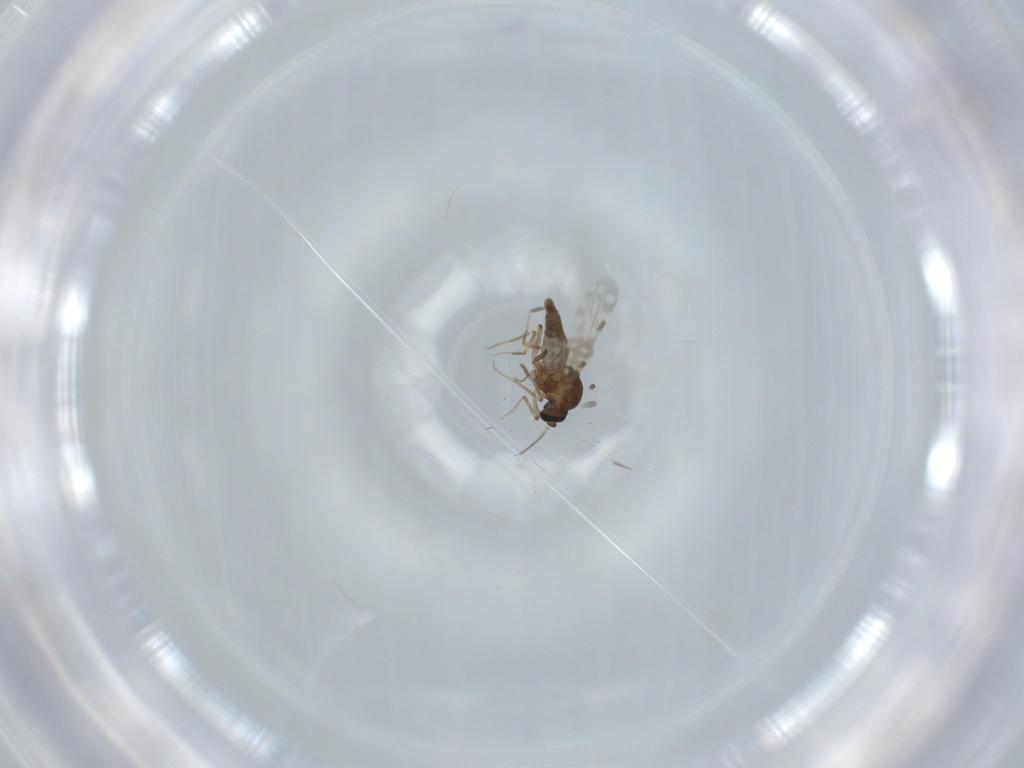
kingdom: Animalia
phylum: Arthropoda
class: Insecta
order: Diptera
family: Ceratopogonidae
